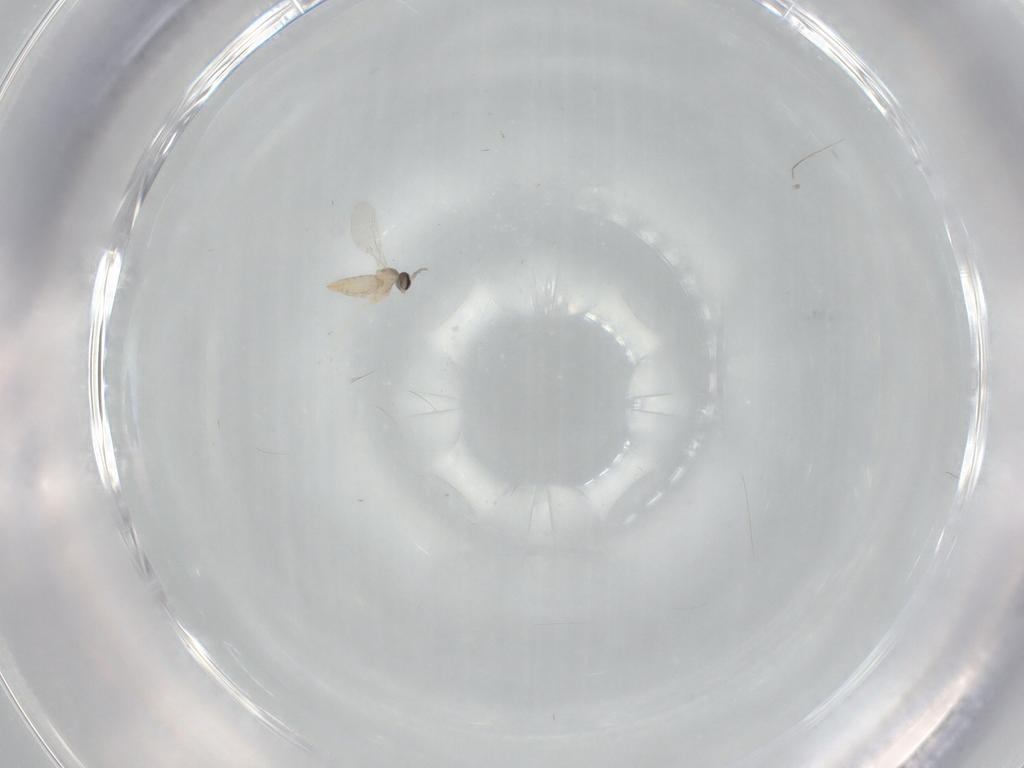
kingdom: Animalia
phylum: Arthropoda
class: Insecta
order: Diptera
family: Cecidomyiidae
